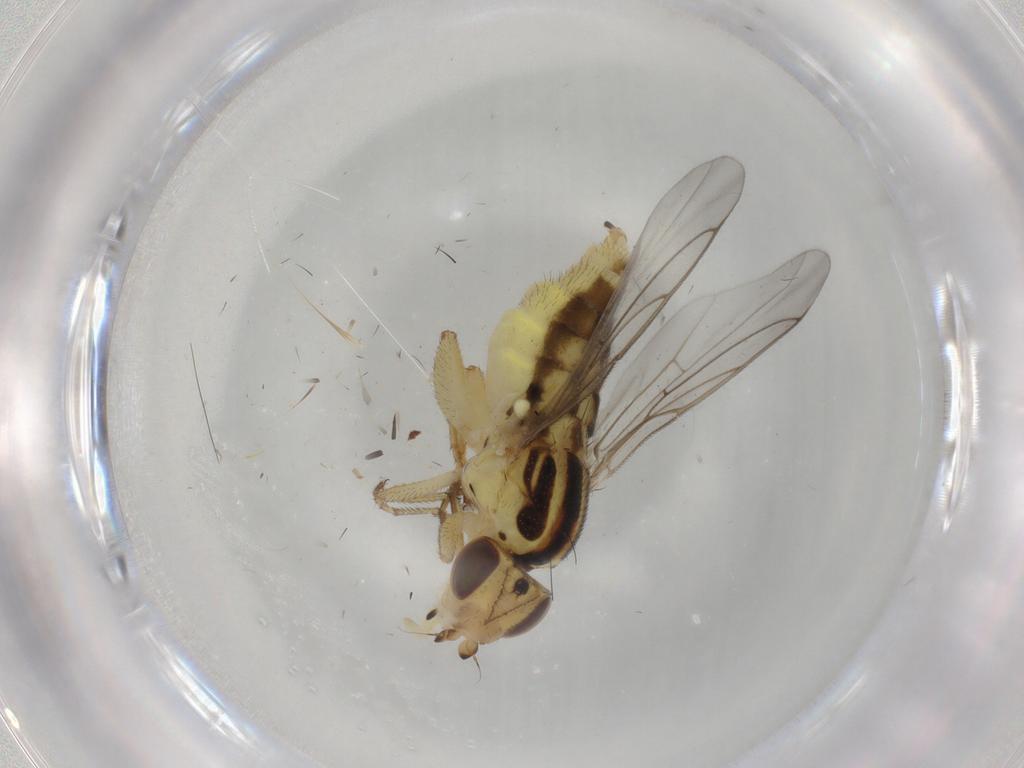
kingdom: Animalia
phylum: Arthropoda
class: Insecta
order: Diptera
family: Chloropidae
